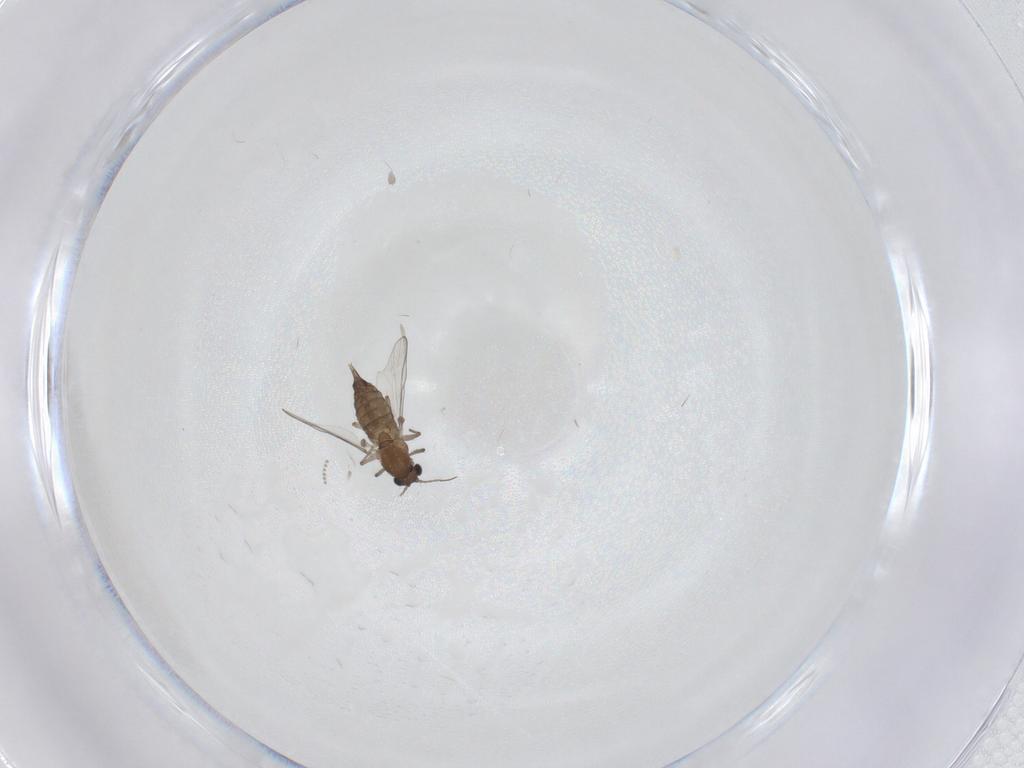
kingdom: Animalia
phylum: Arthropoda
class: Insecta
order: Diptera
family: Chironomidae
